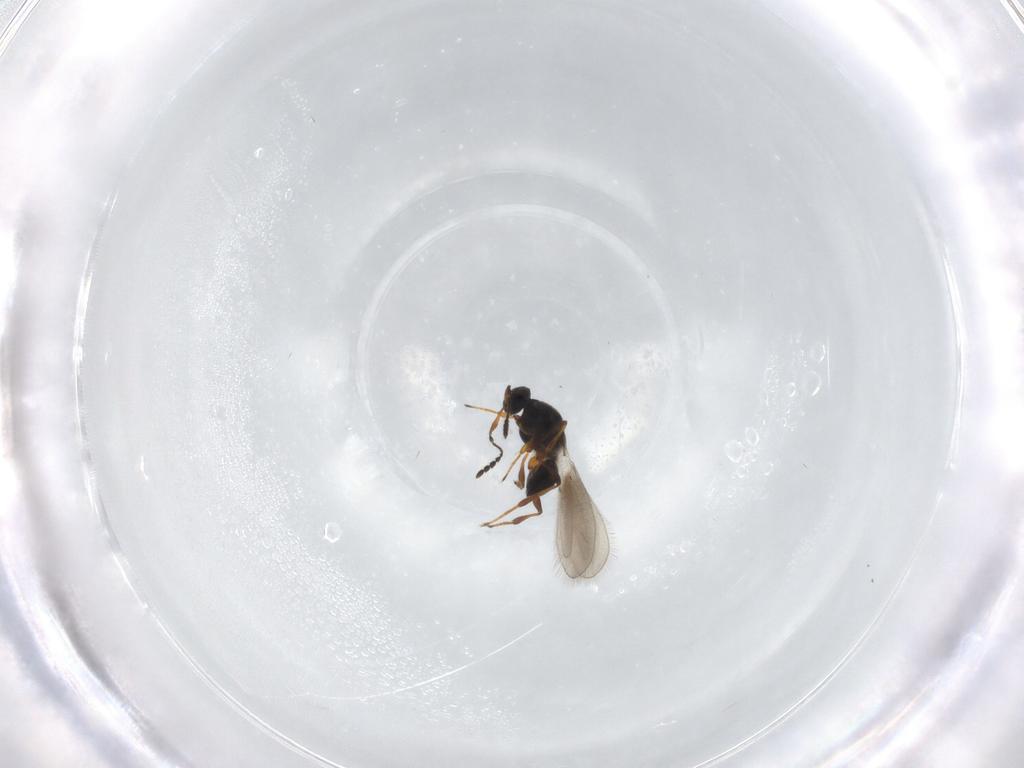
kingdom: Animalia
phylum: Arthropoda
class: Insecta
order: Hymenoptera
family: Platygastridae
